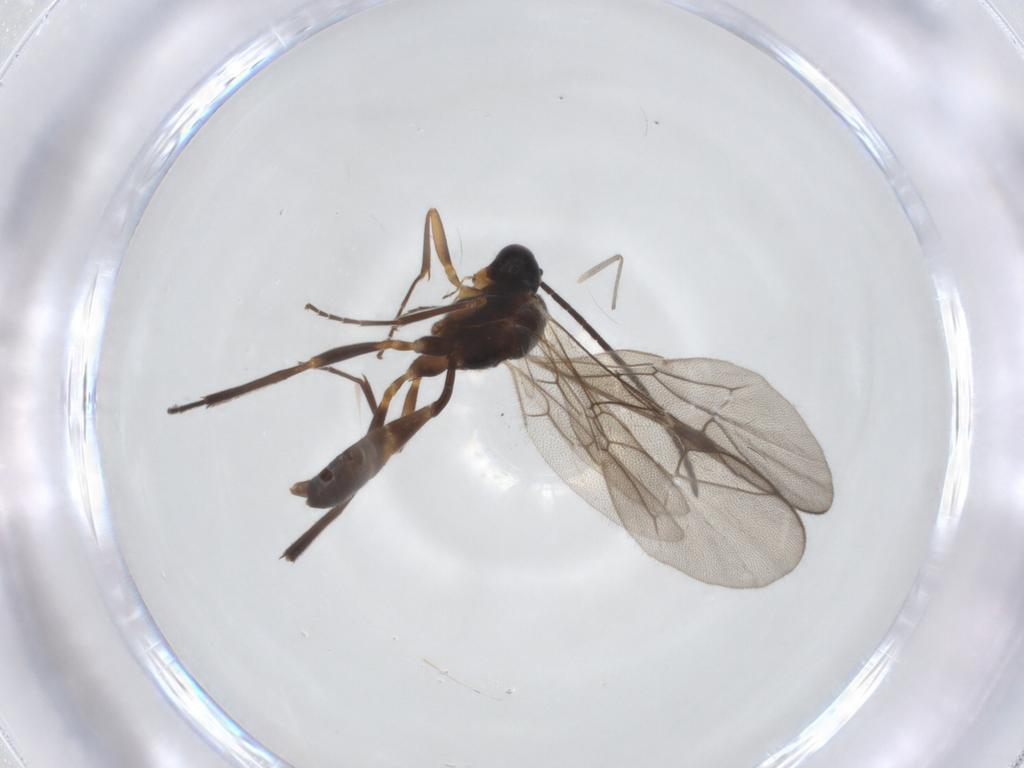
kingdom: Animalia
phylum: Arthropoda
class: Insecta
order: Hymenoptera
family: Ichneumonidae
